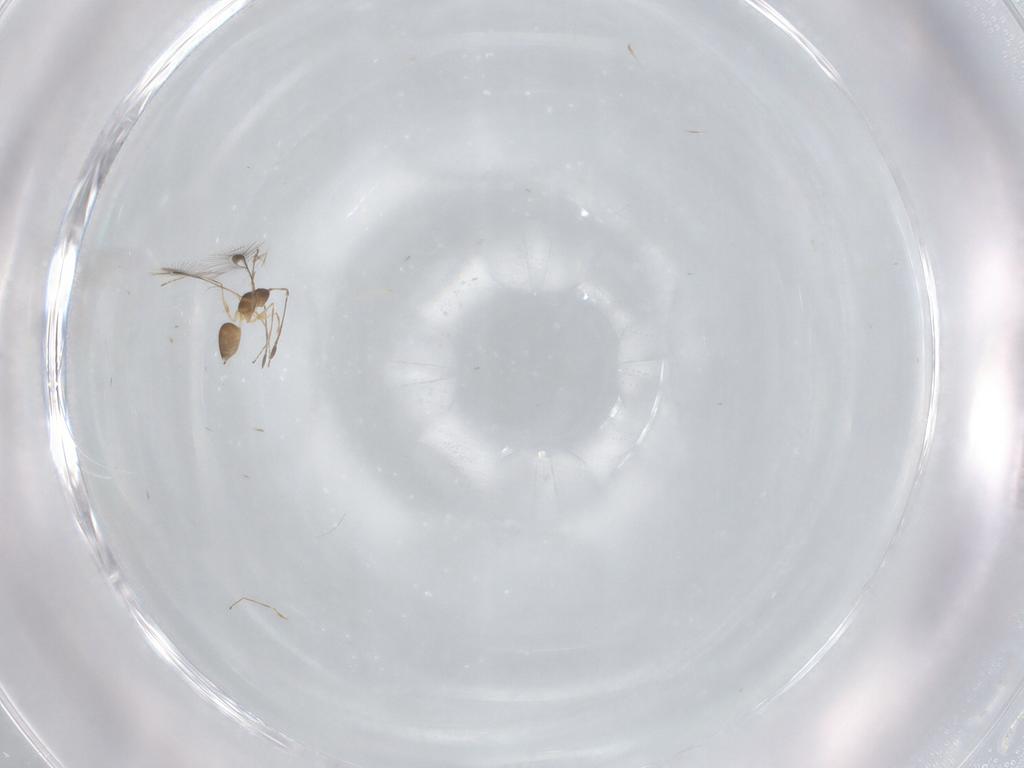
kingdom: Animalia
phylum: Arthropoda
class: Insecta
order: Hymenoptera
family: Mymaridae
